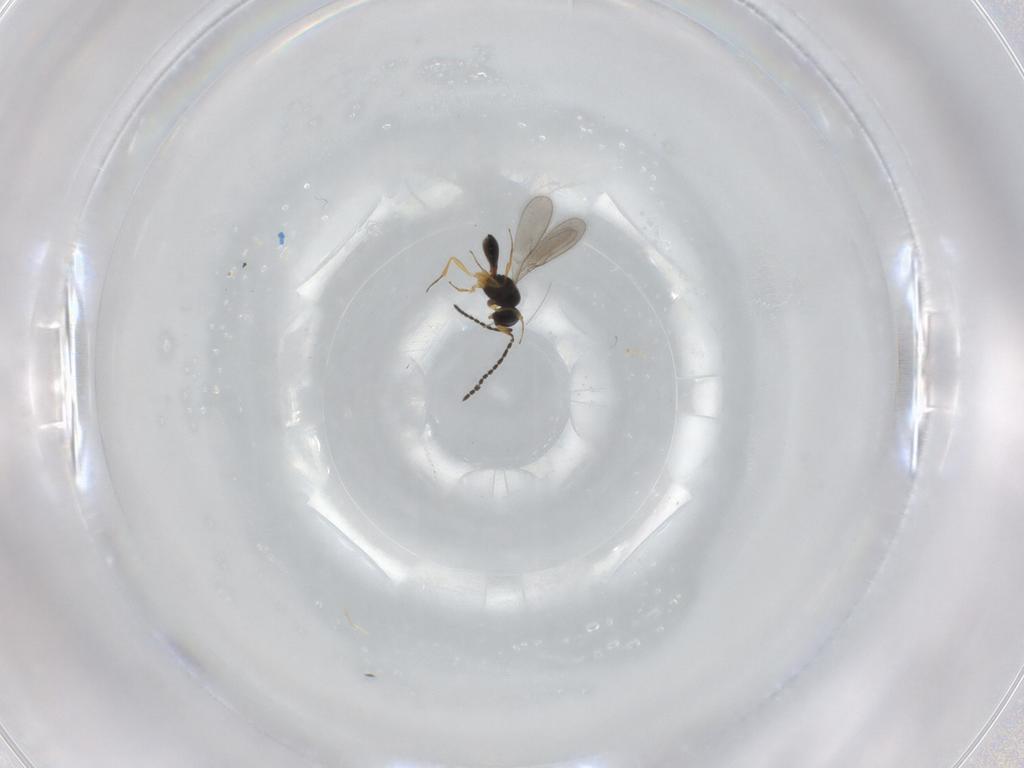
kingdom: Animalia
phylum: Arthropoda
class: Insecta
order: Hymenoptera
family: Scelionidae
